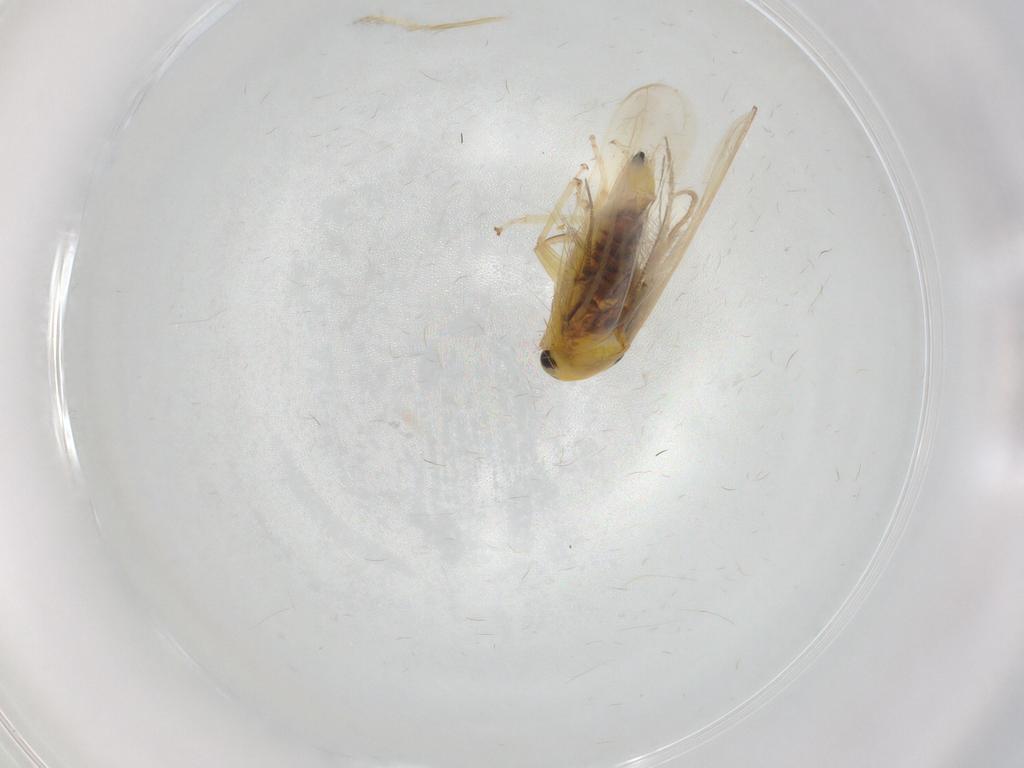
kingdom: Animalia
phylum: Arthropoda
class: Insecta
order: Hemiptera
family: Cicadellidae
